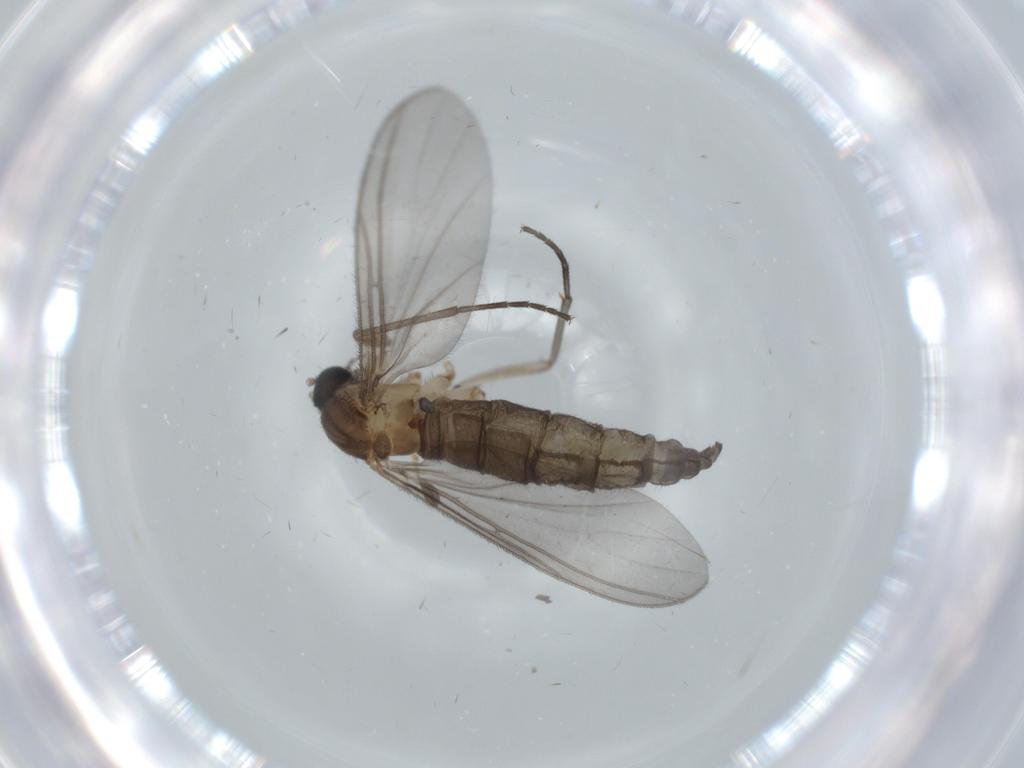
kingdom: Animalia
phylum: Arthropoda
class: Insecta
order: Diptera
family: Sciaridae
